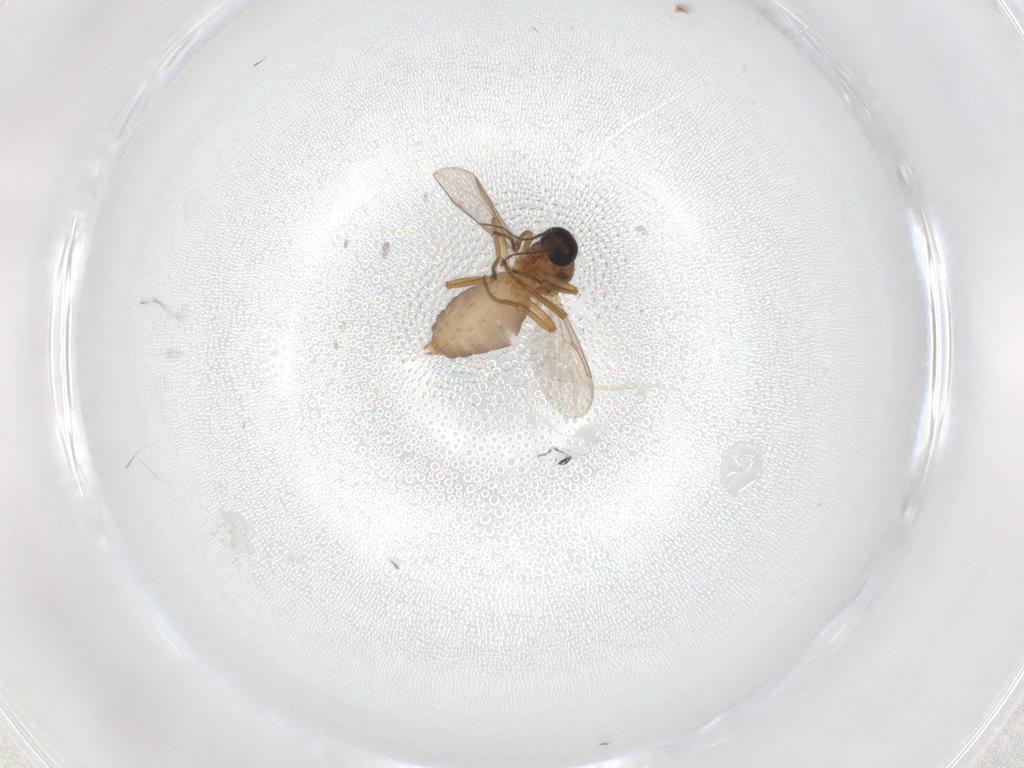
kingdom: Animalia
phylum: Arthropoda
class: Insecta
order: Diptera
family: Ceratopogonidae
